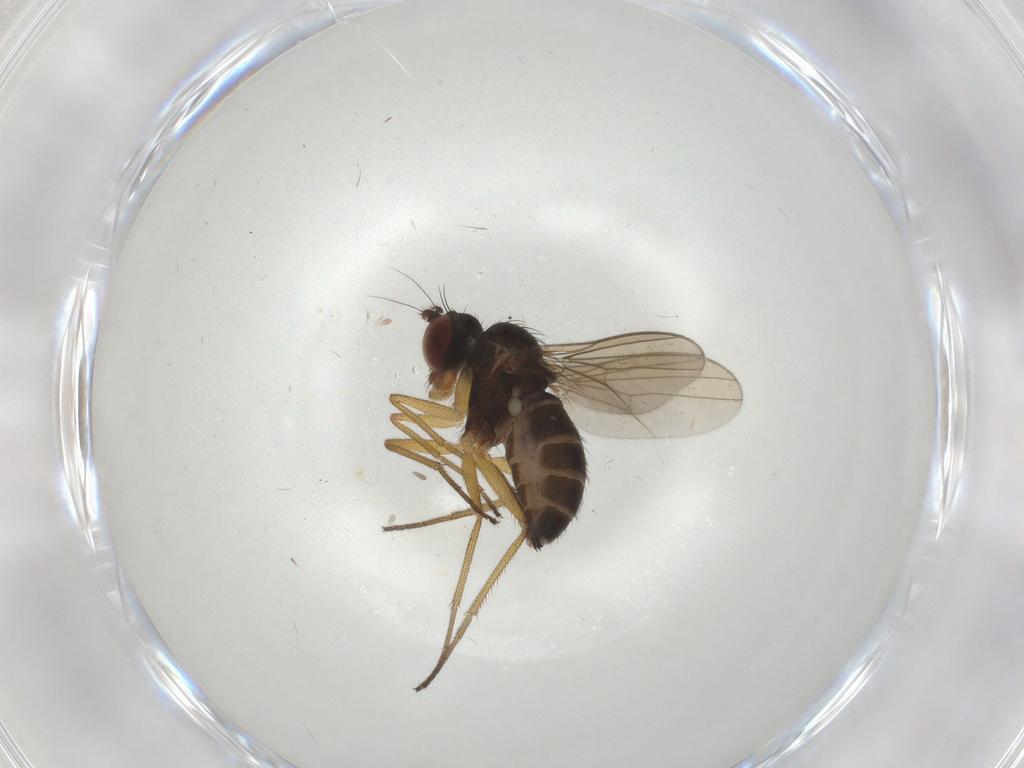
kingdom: Animalia
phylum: Arthropoda
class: Insecta
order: Diptera
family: Dolichopodidae
